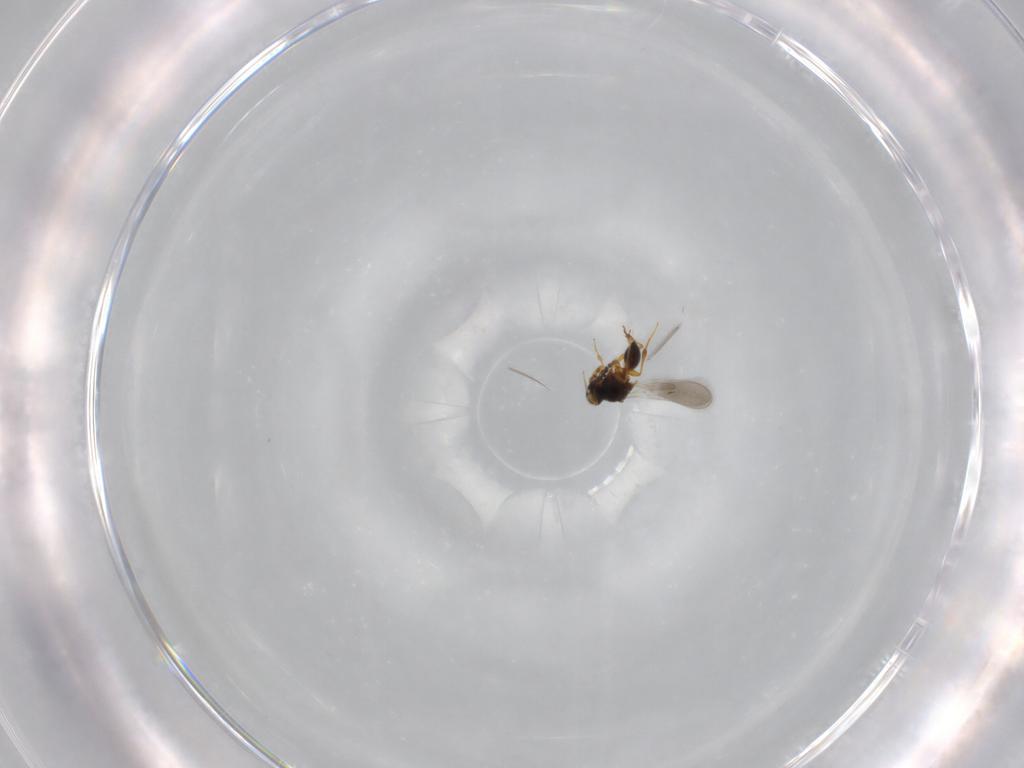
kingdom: Animalia
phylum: Arthropoda
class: Insecta
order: Hymenoptera
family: Platygastridae
